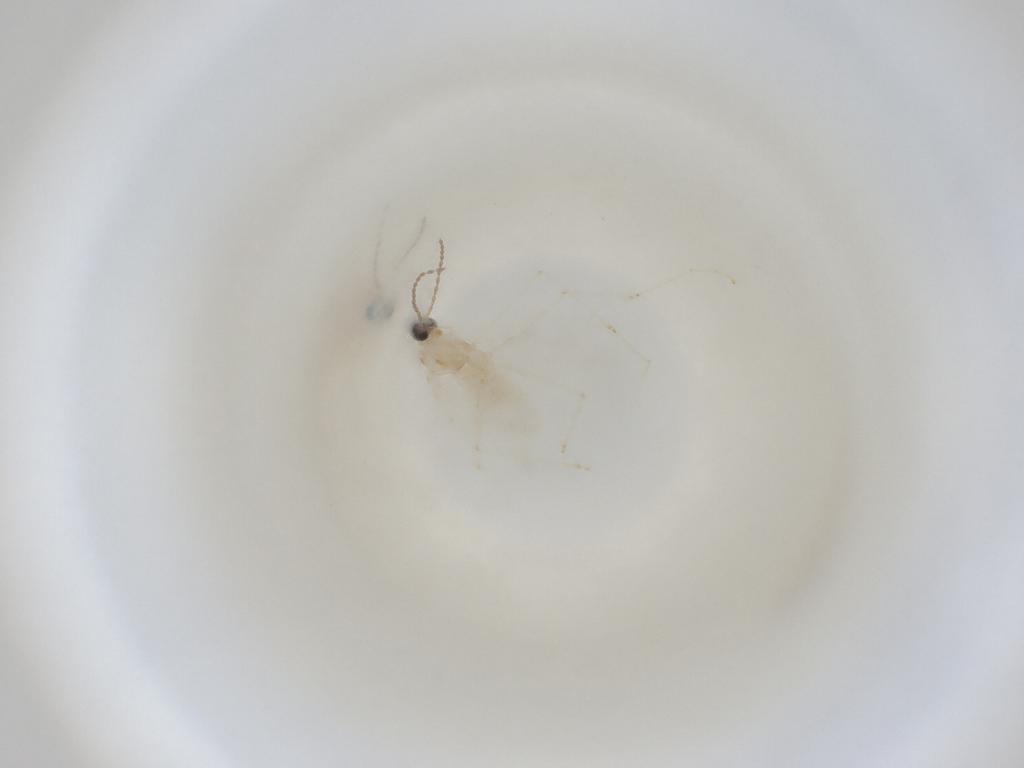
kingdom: Animalia
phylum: Arthropoda
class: Insecta
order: Diptera
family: Cecidomyiidae
